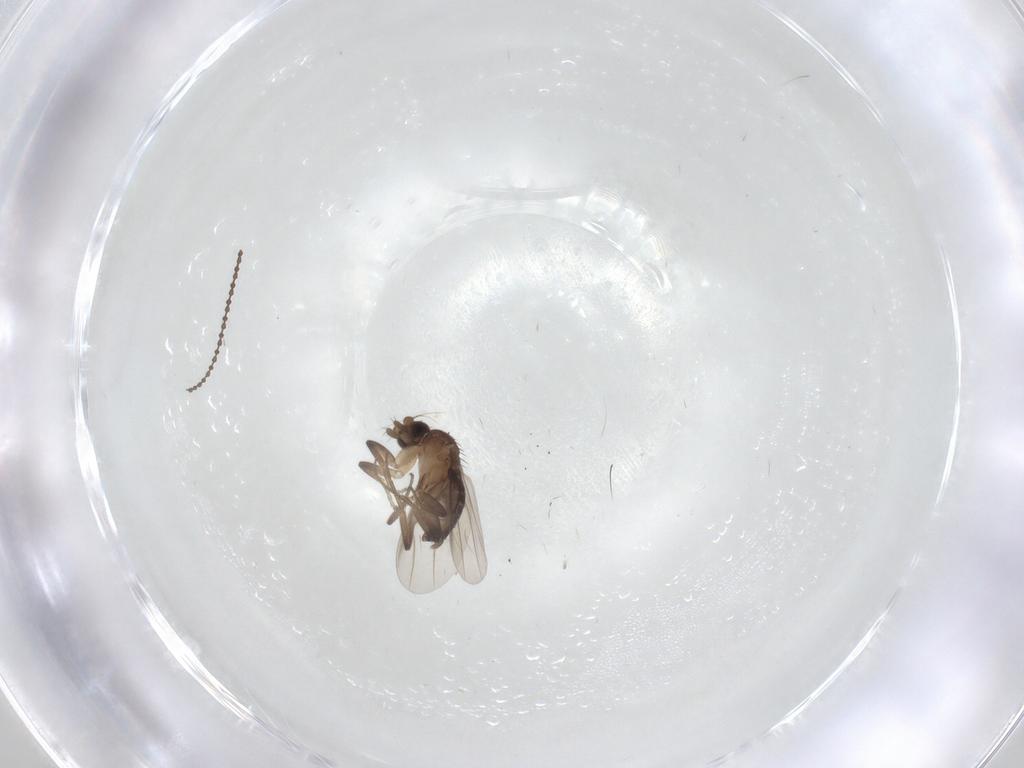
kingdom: Animalia
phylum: Arthropoda
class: Insecta
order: Diptera
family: Phoridae
